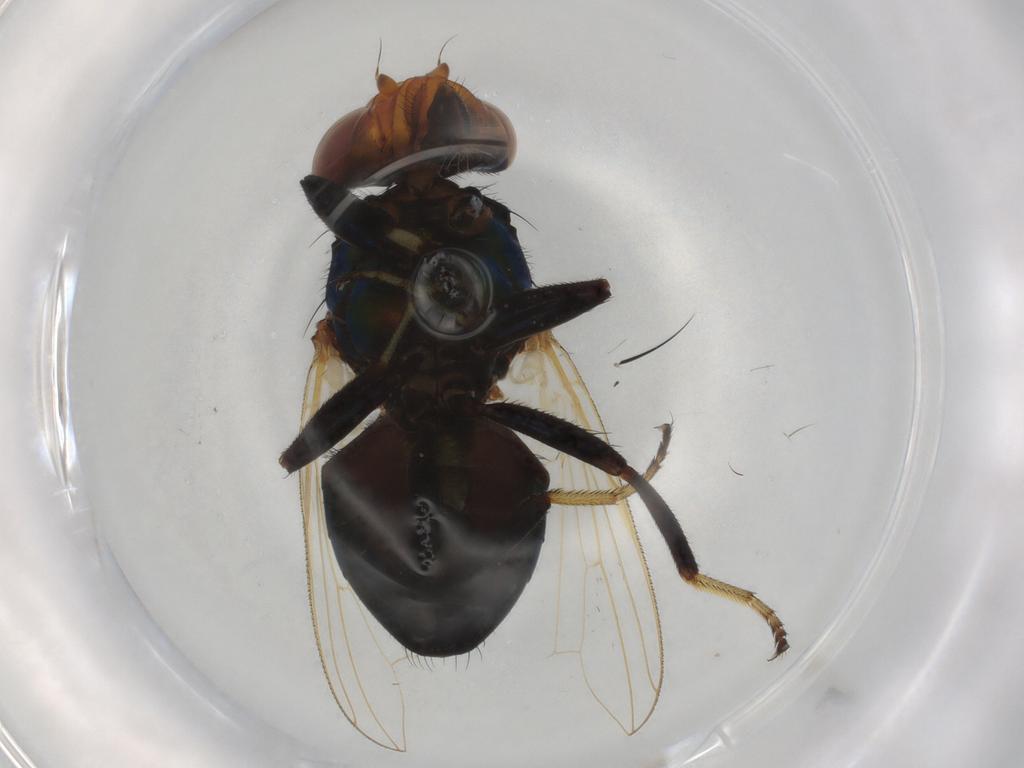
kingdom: Animalia
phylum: Arthropoda
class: Insecta
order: Diptera
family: Ulidiidae
